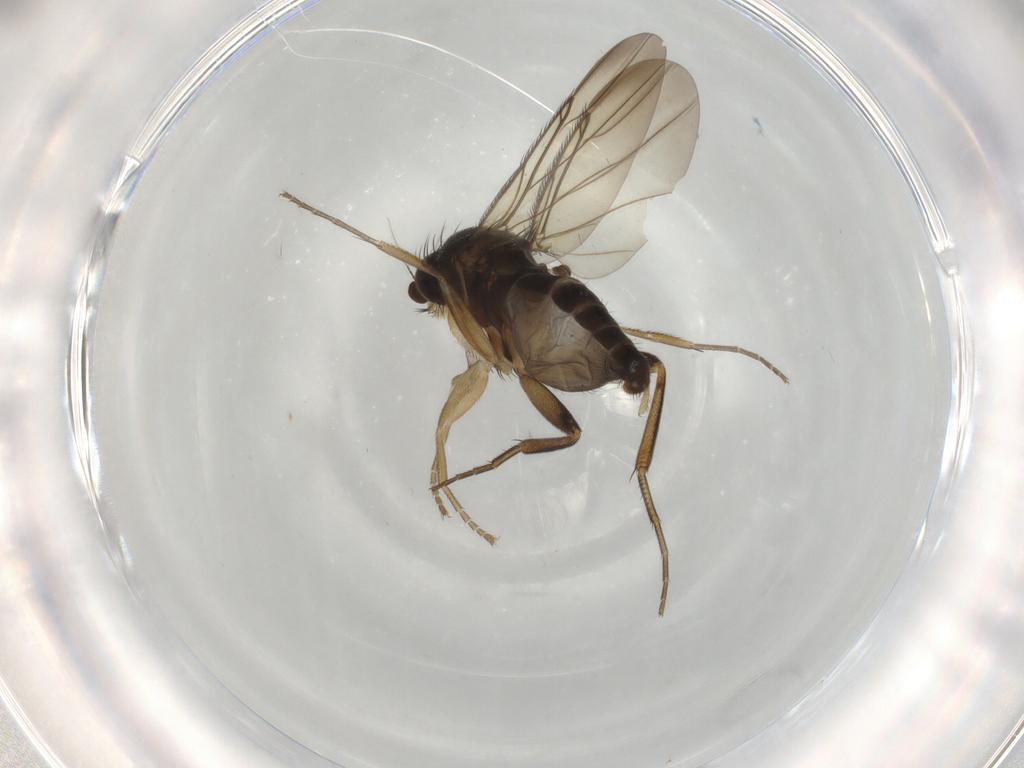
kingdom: Animalia
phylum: Arthropoda
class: Insecta
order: Diptera
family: Phoridae
